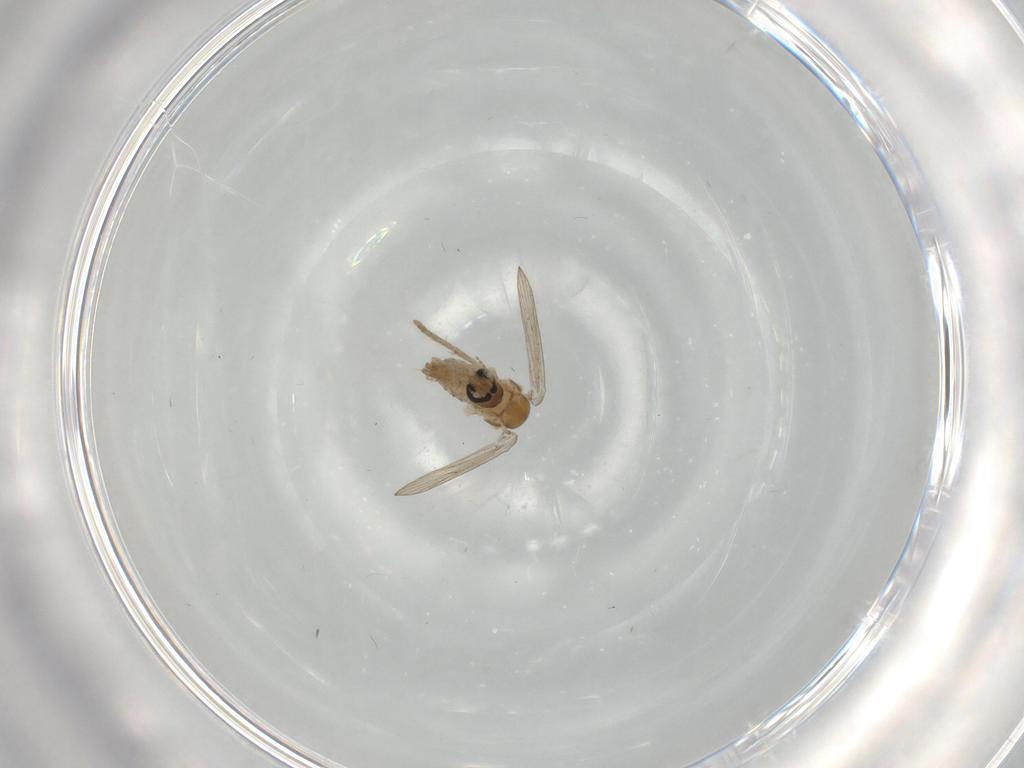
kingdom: Animalia
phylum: Arthropoda
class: Insecta
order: Diptera
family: Psychodidae
